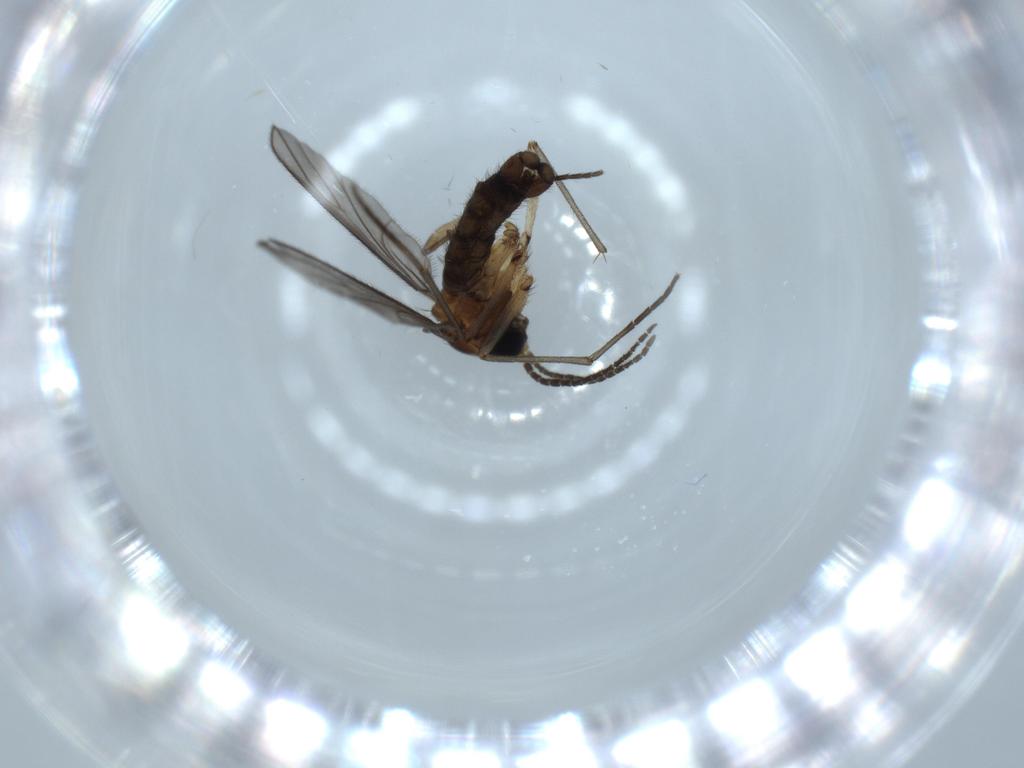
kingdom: Animalia
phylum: Arthropoda
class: Insecta
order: Diptera
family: Sciaridae
